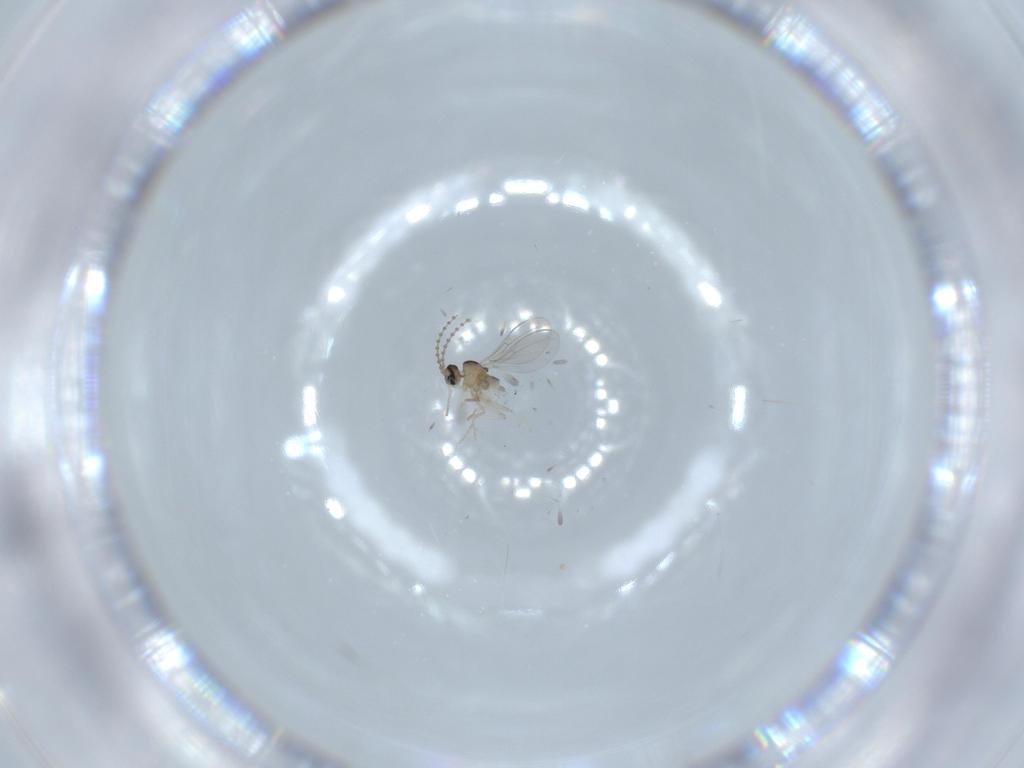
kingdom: Animalia
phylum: Arthropoda
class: Insecta
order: Diptera
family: Cecidomyiidae
